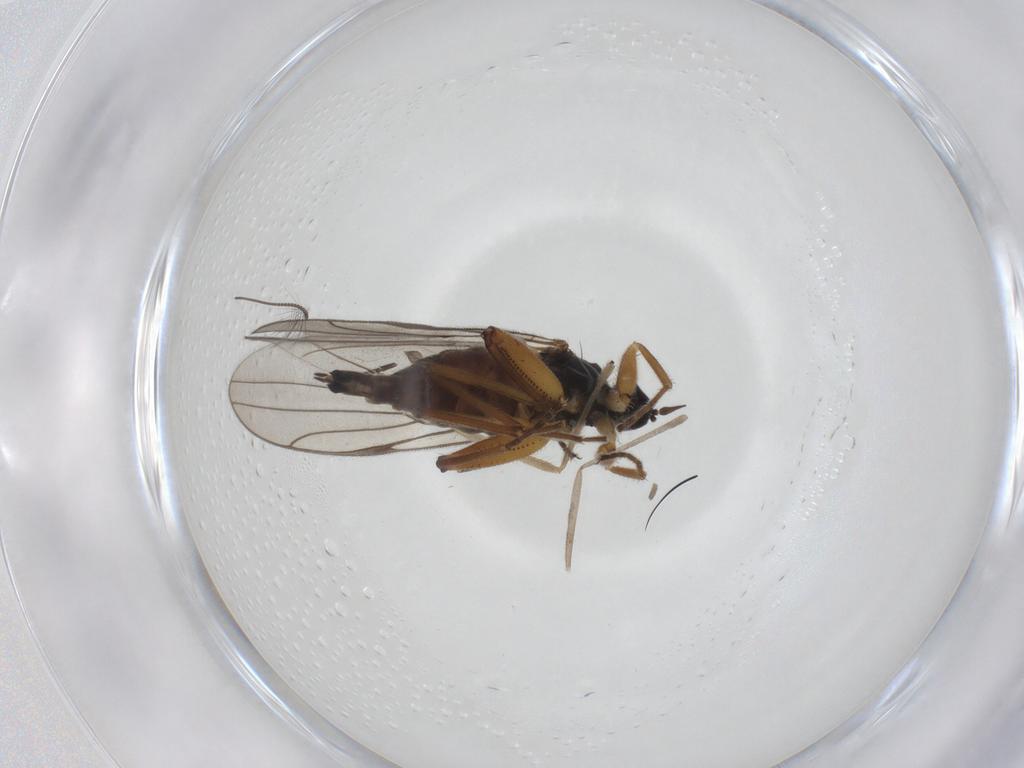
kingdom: Animalia
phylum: Arthropoda
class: Insecta
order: Diptera
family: Hybotidae
